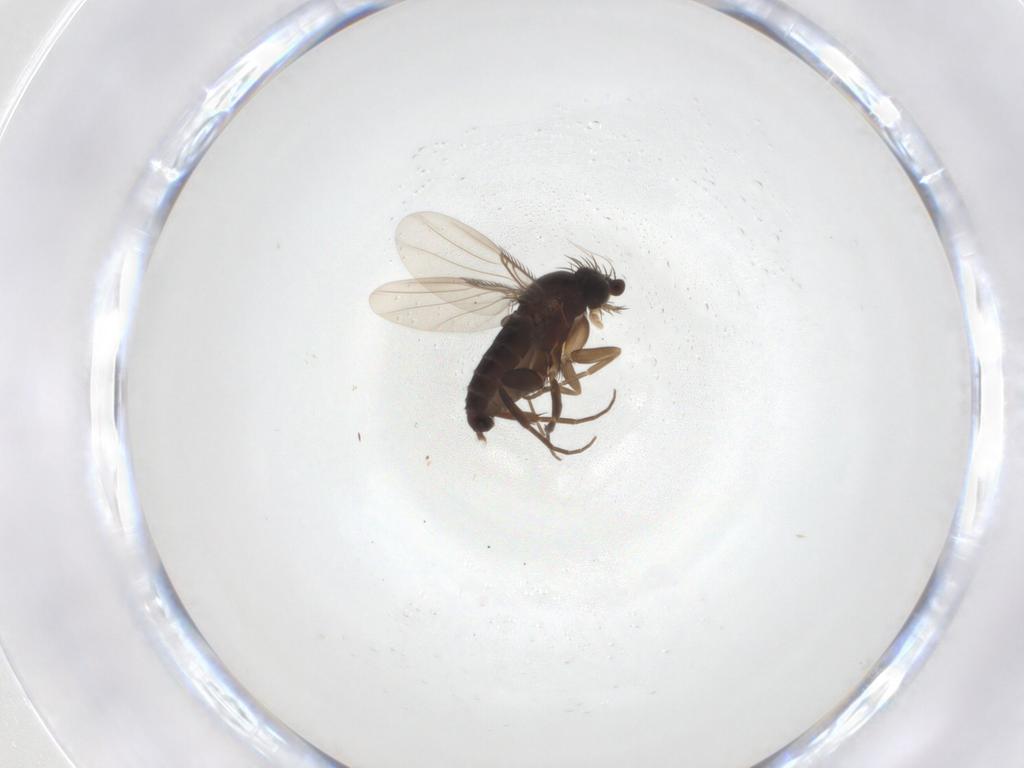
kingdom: Animalia
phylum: Arthropoda
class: Insecta
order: Diptera
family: Phoridae
